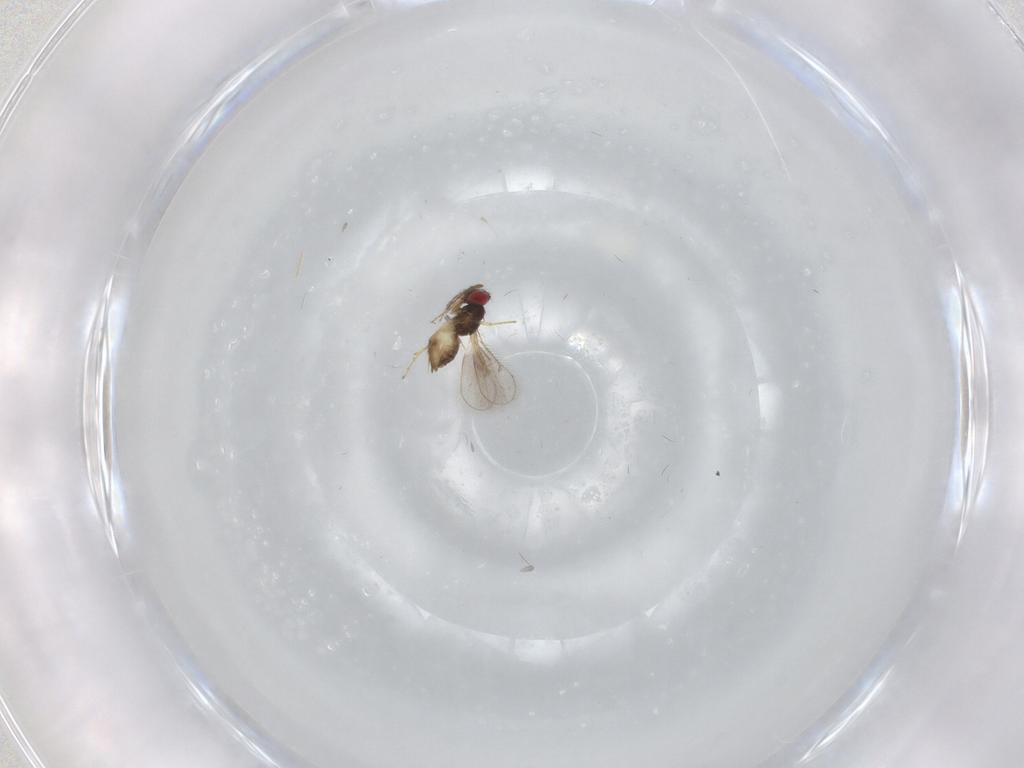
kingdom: Animalia
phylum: Arthropoda
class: Insecta
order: Hymenoptera
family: Eulophidae
